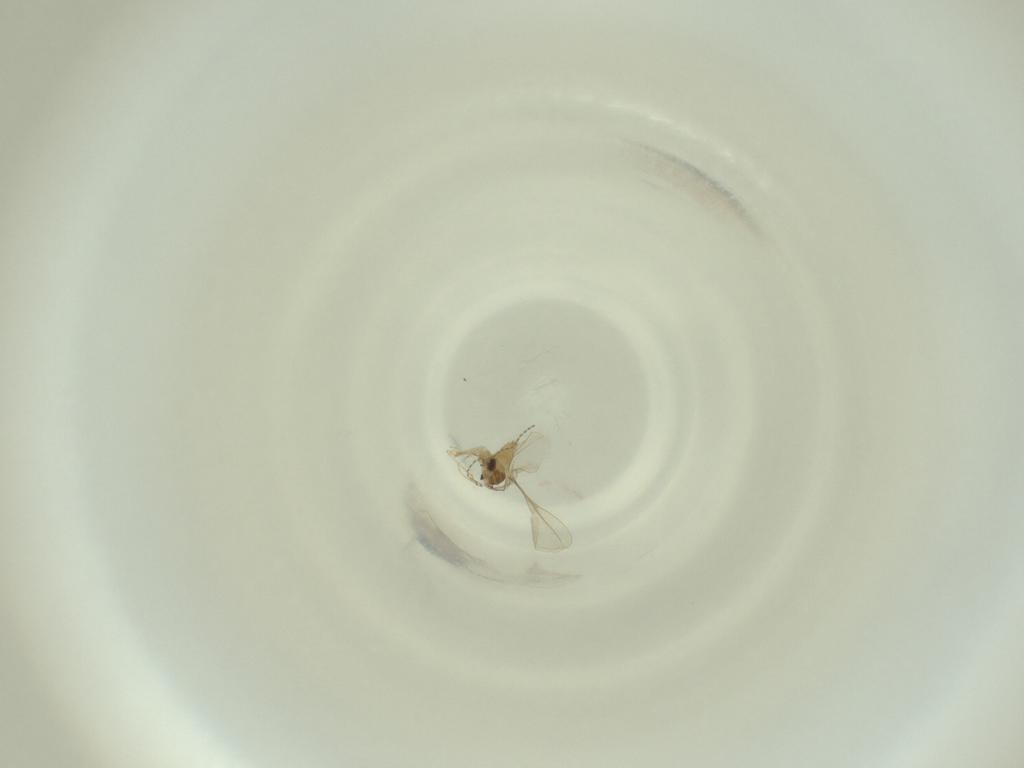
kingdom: Animalia
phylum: Arthropoda
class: Insecta
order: Diptera
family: Cecidomyiidae
